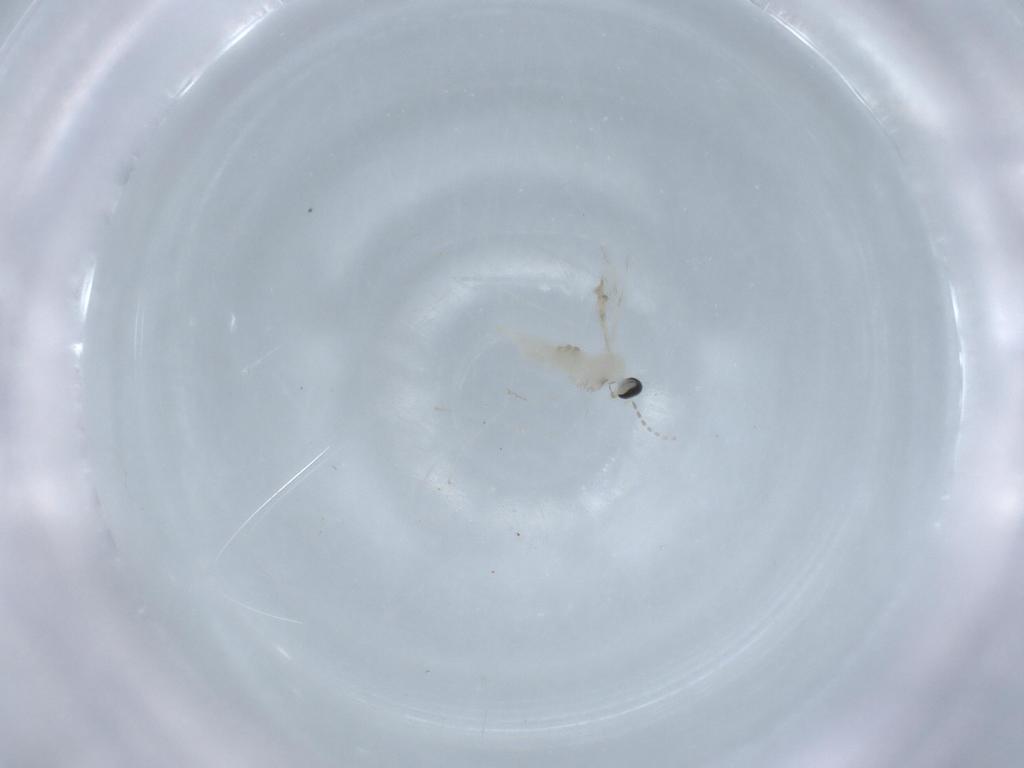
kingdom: Animalia
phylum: Arthropoda
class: Insecta
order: Diptera
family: Cecidomyiidae
